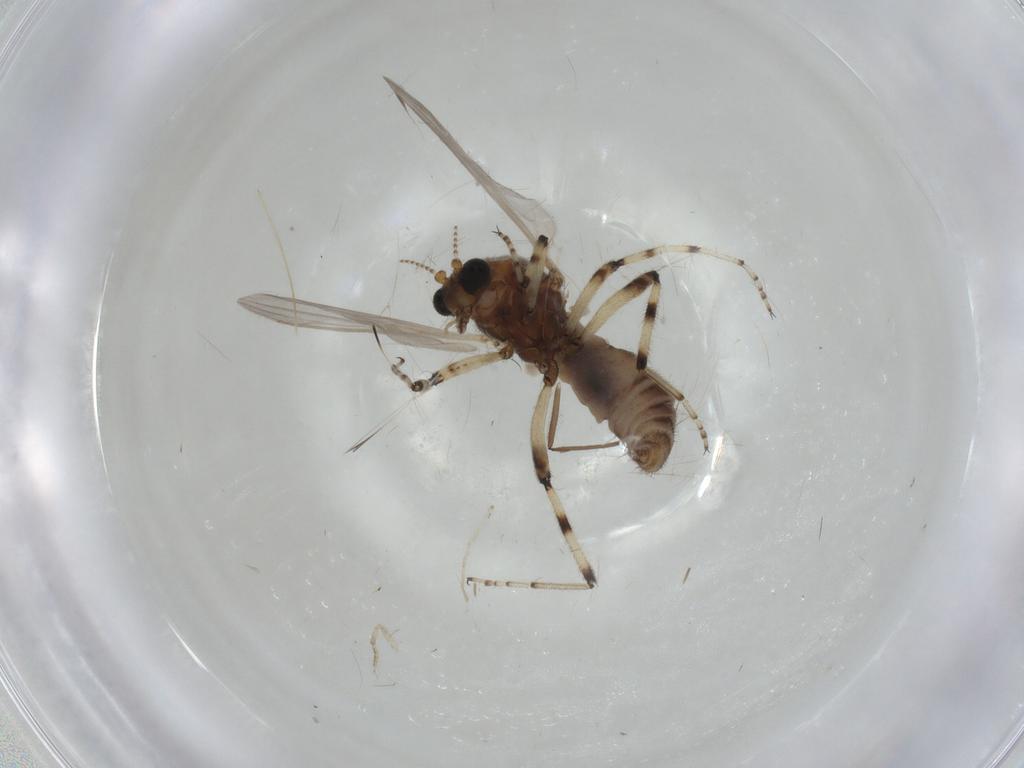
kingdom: Animalia
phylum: Arthropoda
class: Insecta
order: Diptera
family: Ceratopogonidae
